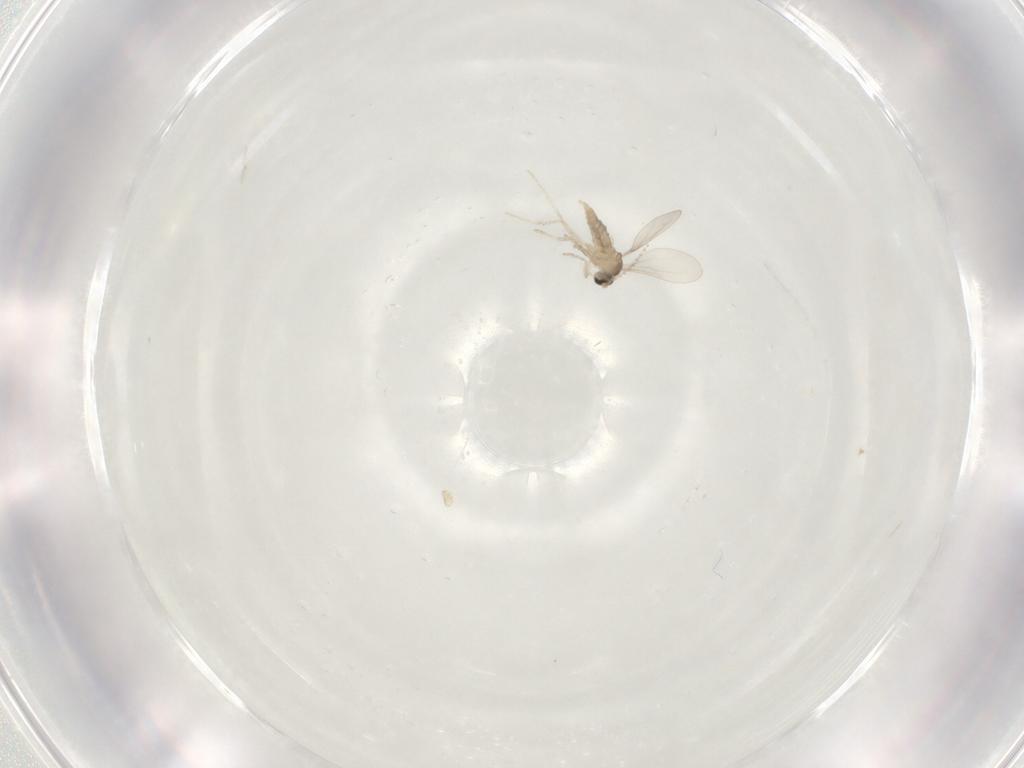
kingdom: Animalia
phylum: Arthropoda
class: Insecta
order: Diptera
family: Cecidomyiidae
